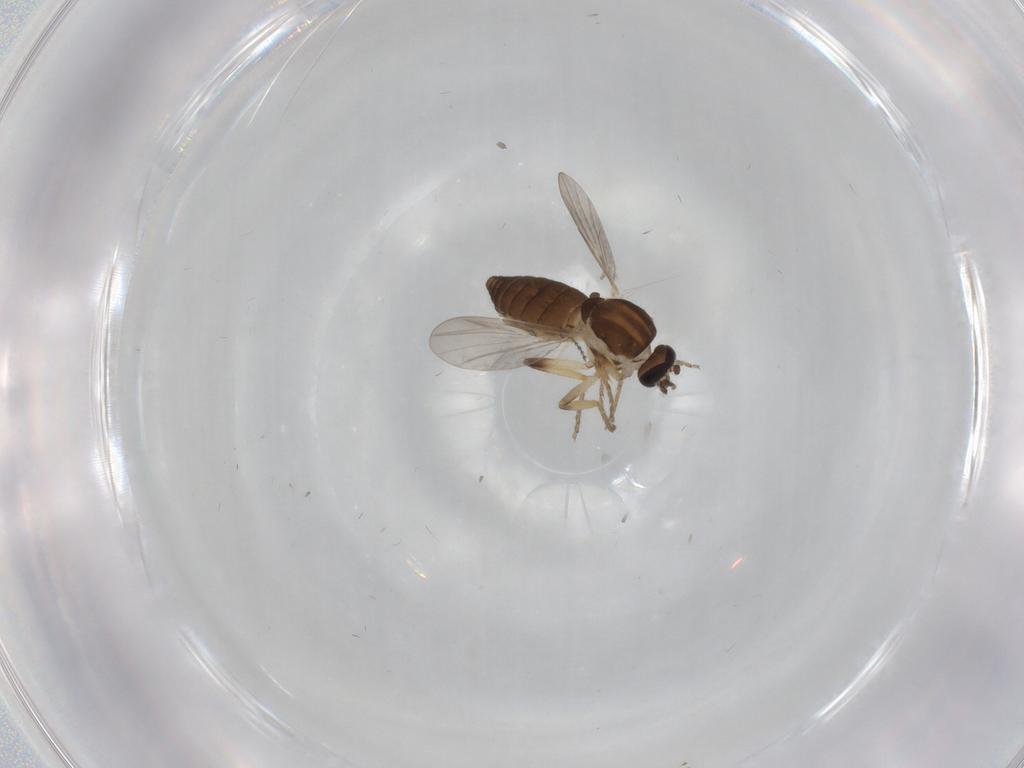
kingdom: Animalia
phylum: Arthropoda
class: Insecta
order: Diptera
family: Ceratopogonidae
